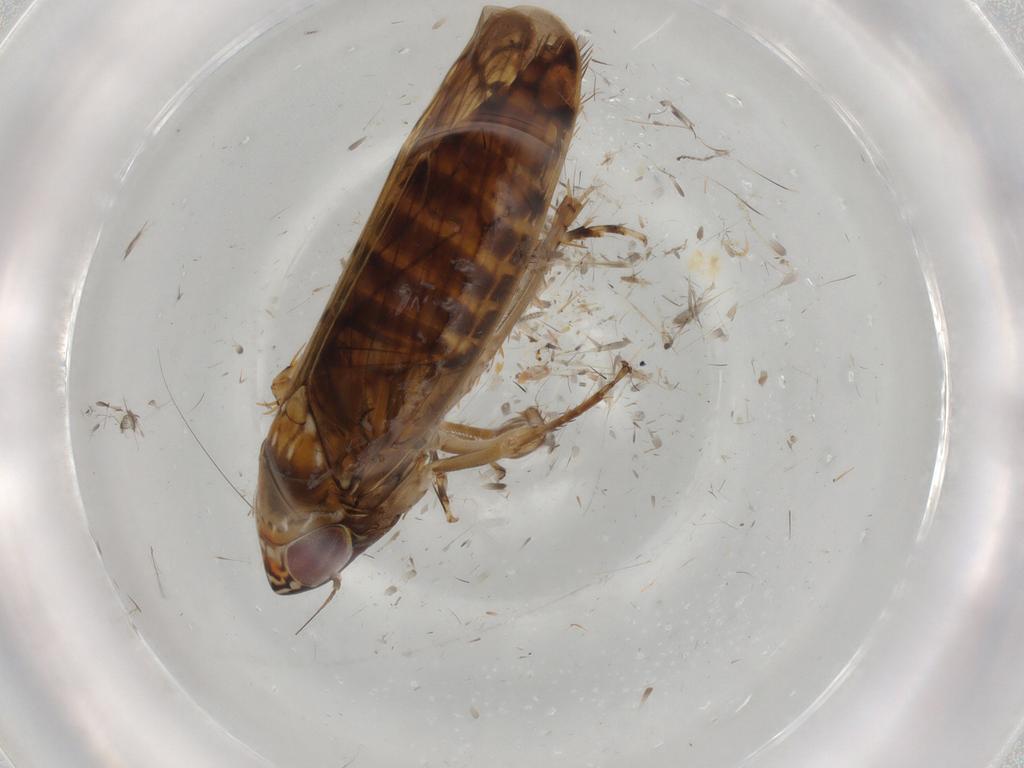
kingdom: Animalia
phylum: Arthropoda
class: Insecta
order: Hemiptera
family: Cicadellidae
